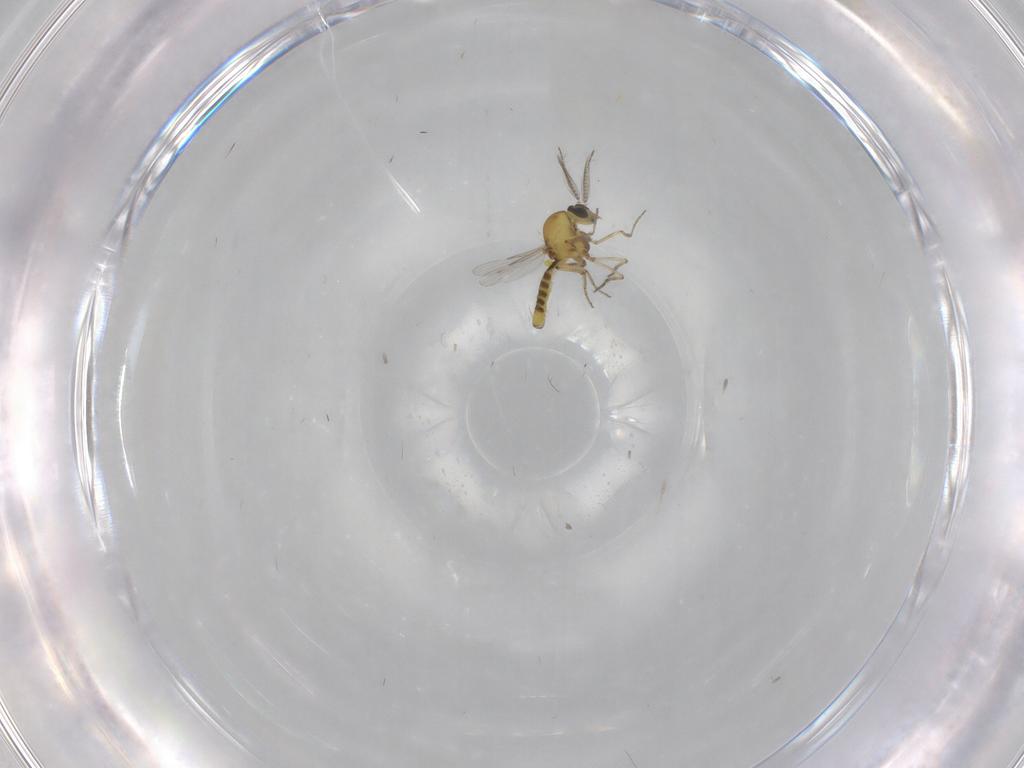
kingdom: Animalia
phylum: Arthropoda
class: Insecta
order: Diptera
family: Ceratopogonidae
